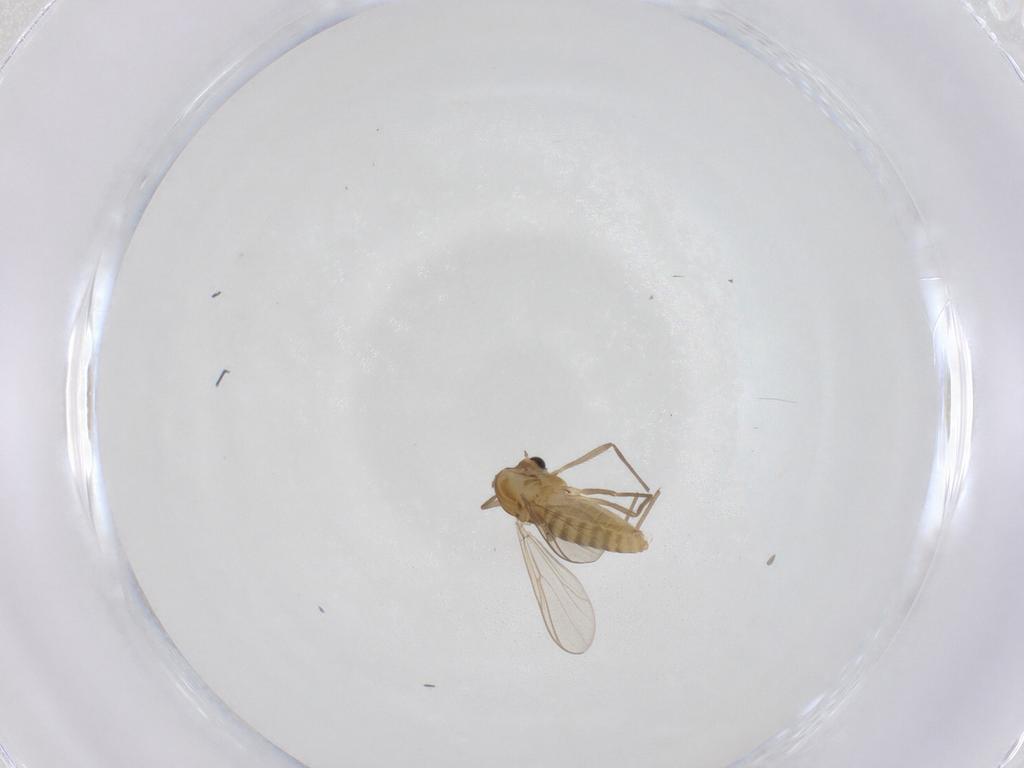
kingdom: Animalia
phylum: Arthropoda
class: Insecta
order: Diptera
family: Chironomidae
